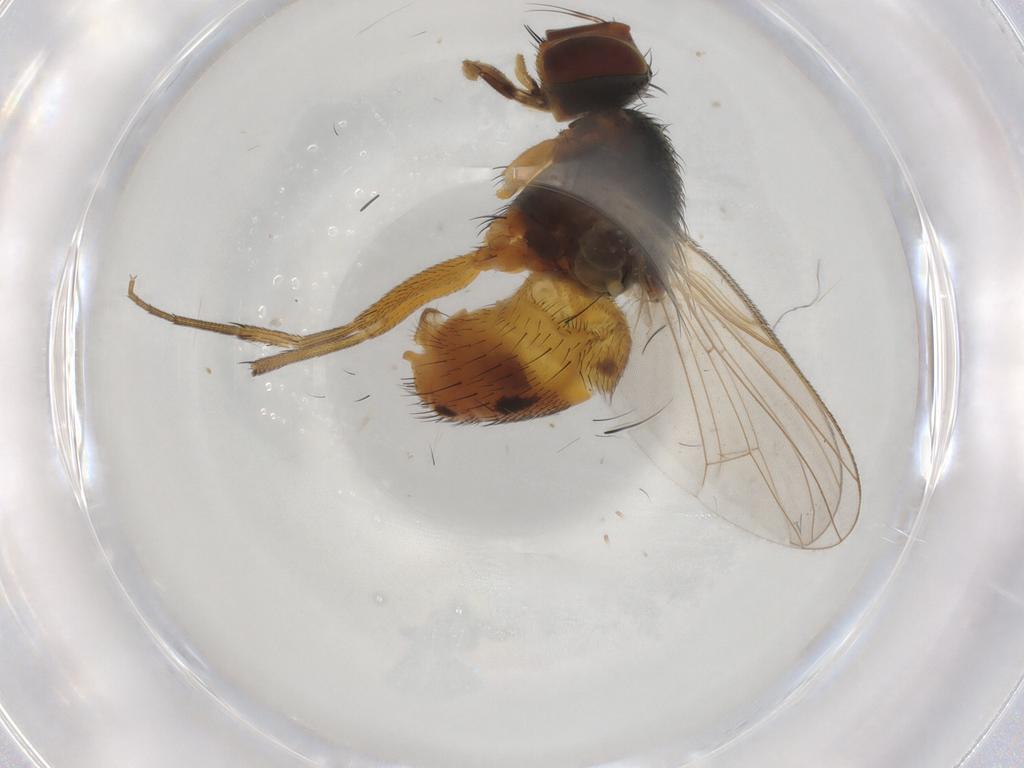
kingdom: Animalia
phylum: Arthropoda
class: Insecta
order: Diptera
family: Muscidae
